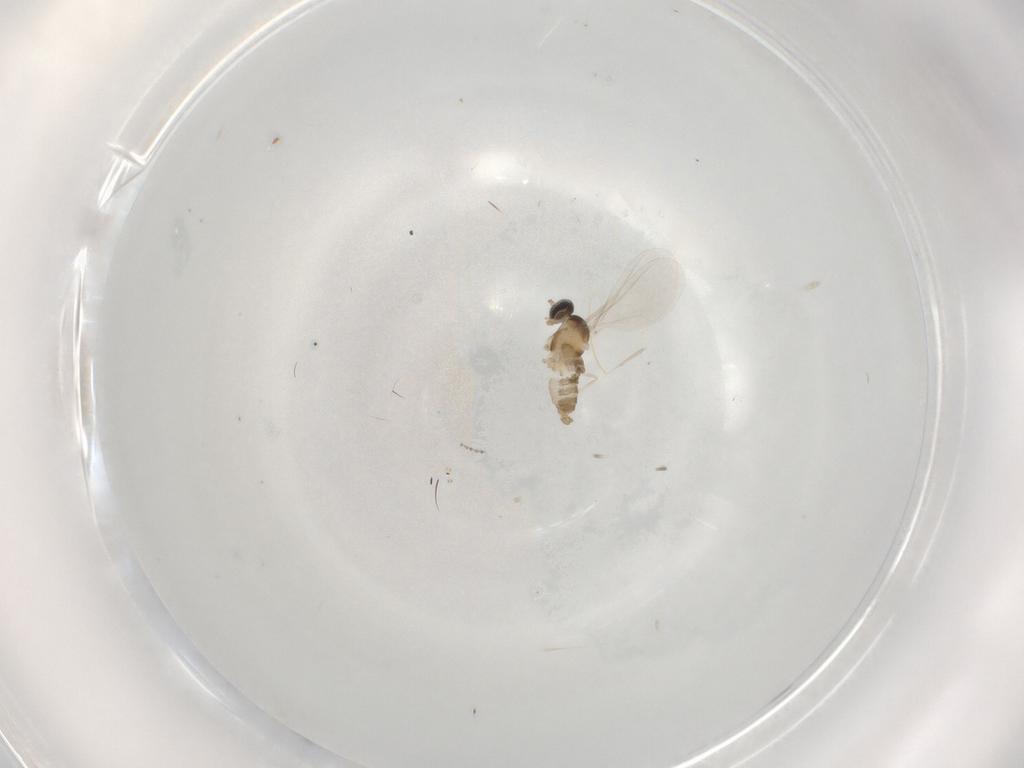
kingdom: Animalia
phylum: Arthropoda
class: Insecta
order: Diptera
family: Cecidomyiidae
